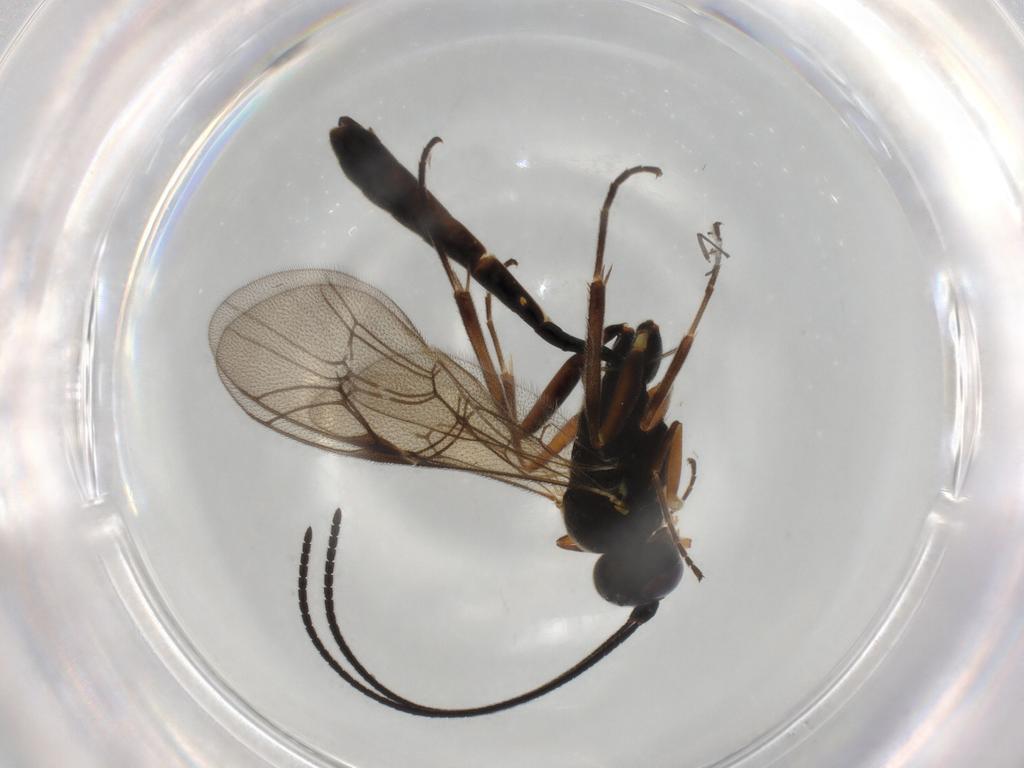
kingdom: Animalia
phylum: Arthropoda
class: Insecta
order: Hymenoptera
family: Ichneumonidae
